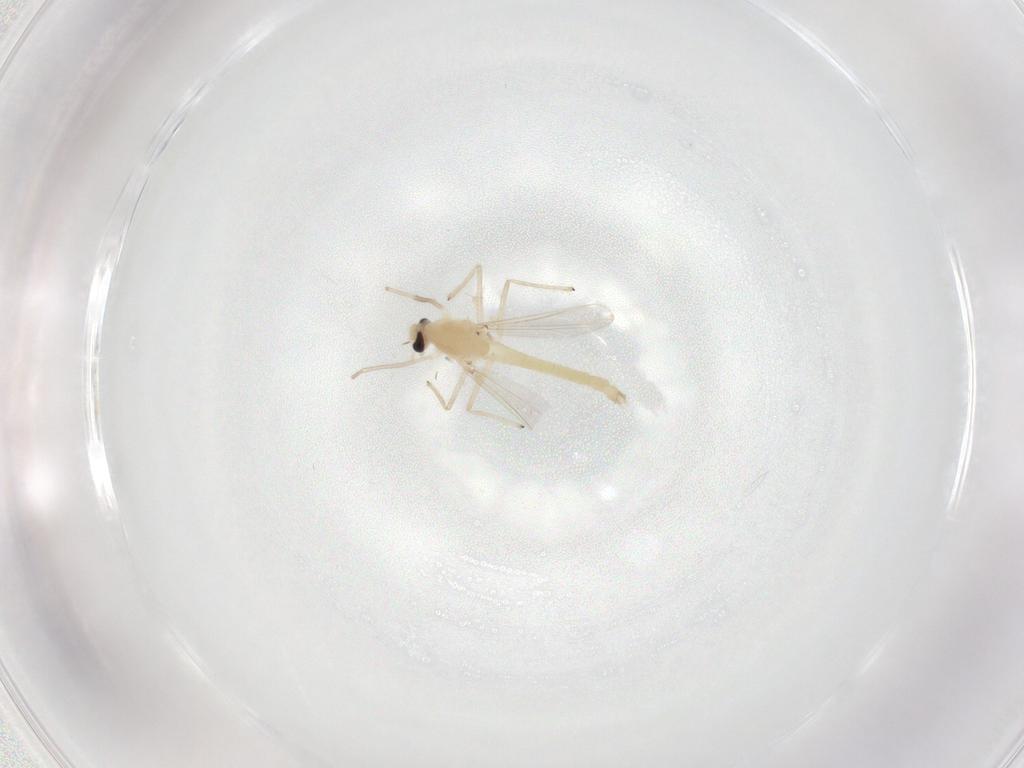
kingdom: Animalia
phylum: Arthropoda
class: Insecta
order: Diptera
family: Chironomidae
